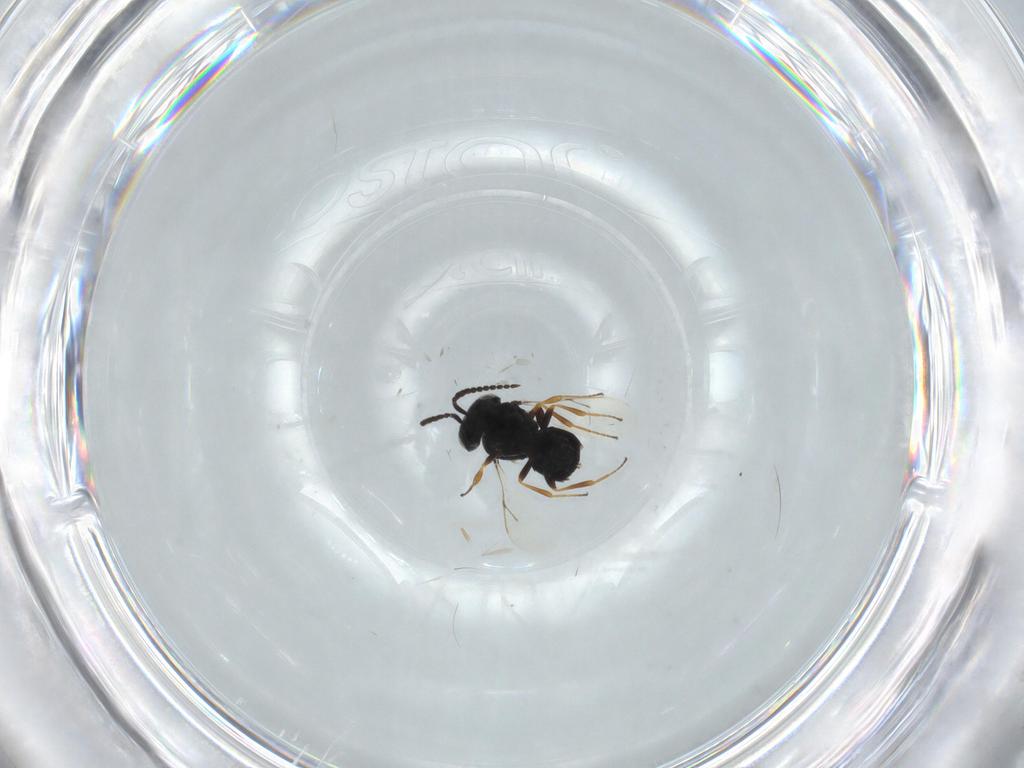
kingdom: Animalia
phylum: Arthropoda
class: Insecta
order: Hymenoptera
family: Scelionidae
